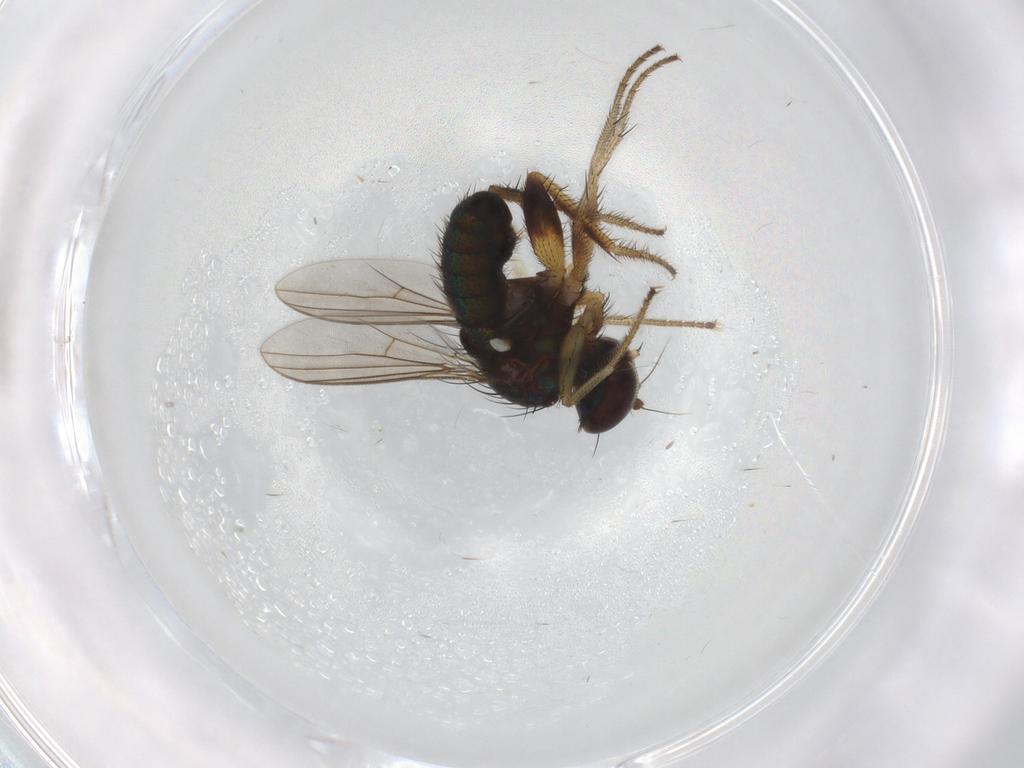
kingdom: Animalia
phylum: Arthropoda
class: Insecta
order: Diptera
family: Dolichopodidae
